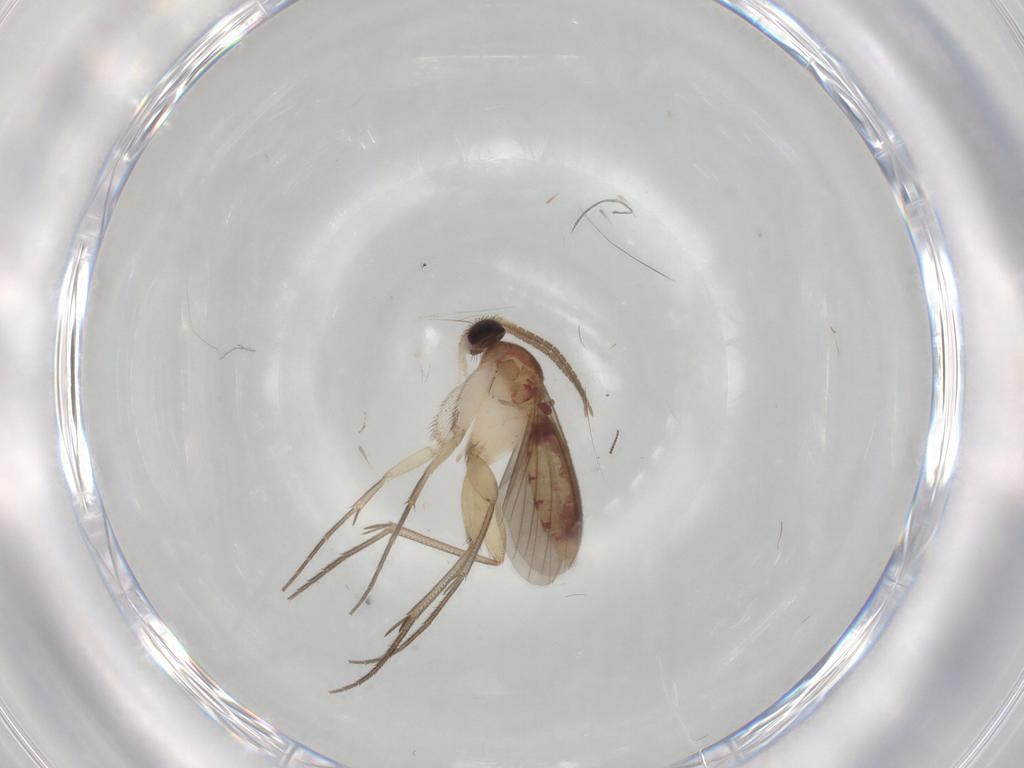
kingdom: Animalia
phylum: Arthropoda
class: Insecta
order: Diptera
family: Mycetophilidae
